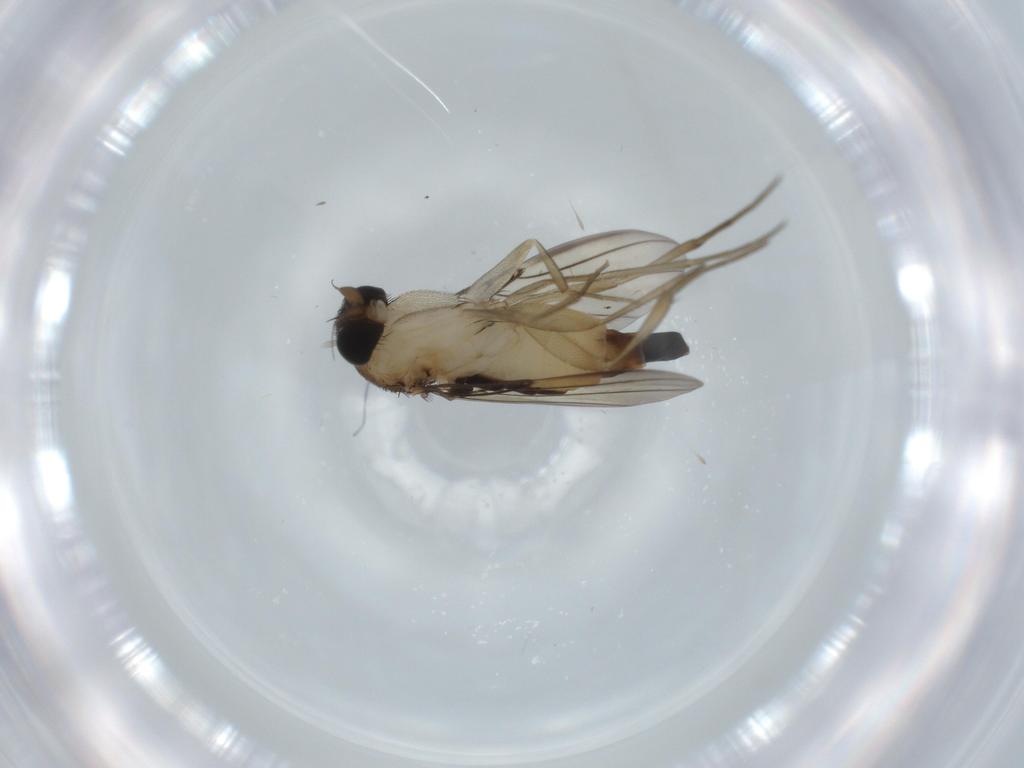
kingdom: Animalia
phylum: Arthropoda
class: Insecta
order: Diptera
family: Phoridae
